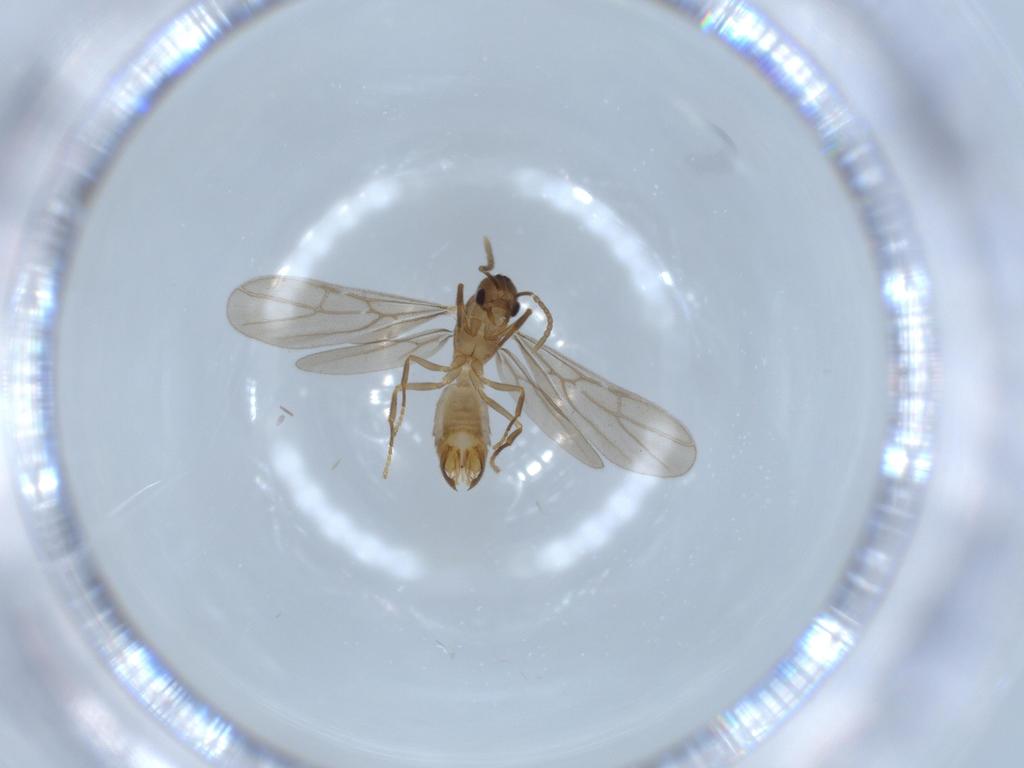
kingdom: Animalia
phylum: Arthropoda
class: Insecta
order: Hymenoptera
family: Formicidae
